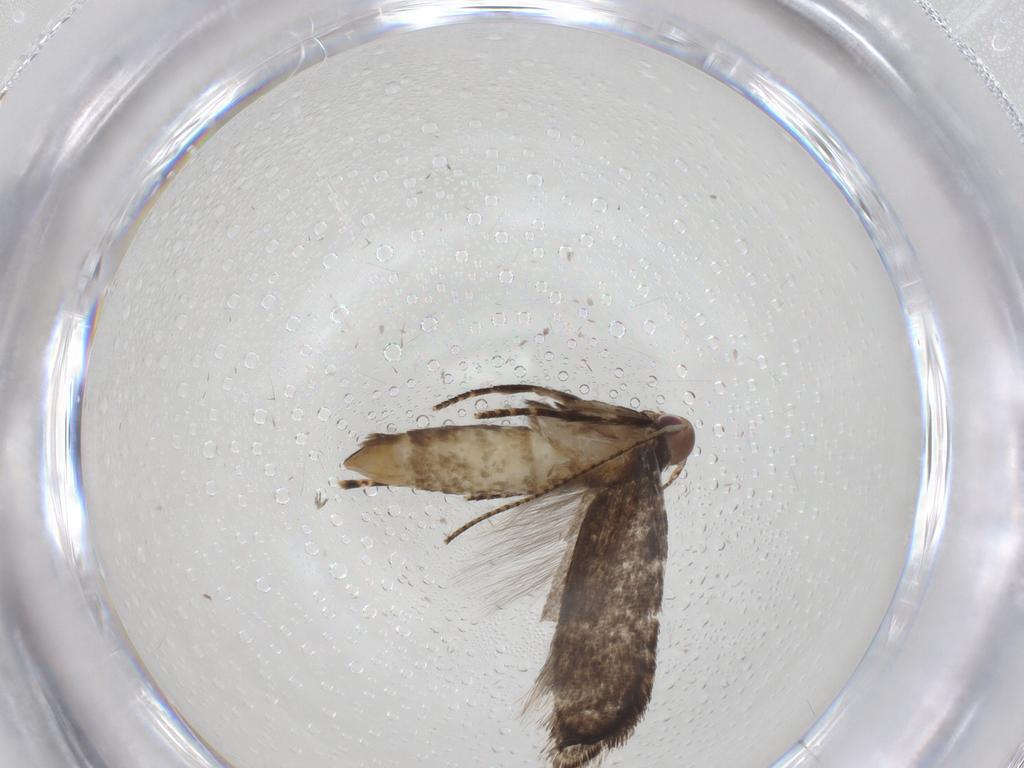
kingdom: Animalia
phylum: Arthropoda
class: Insecta
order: Lepidoptera
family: Gelechiidae
